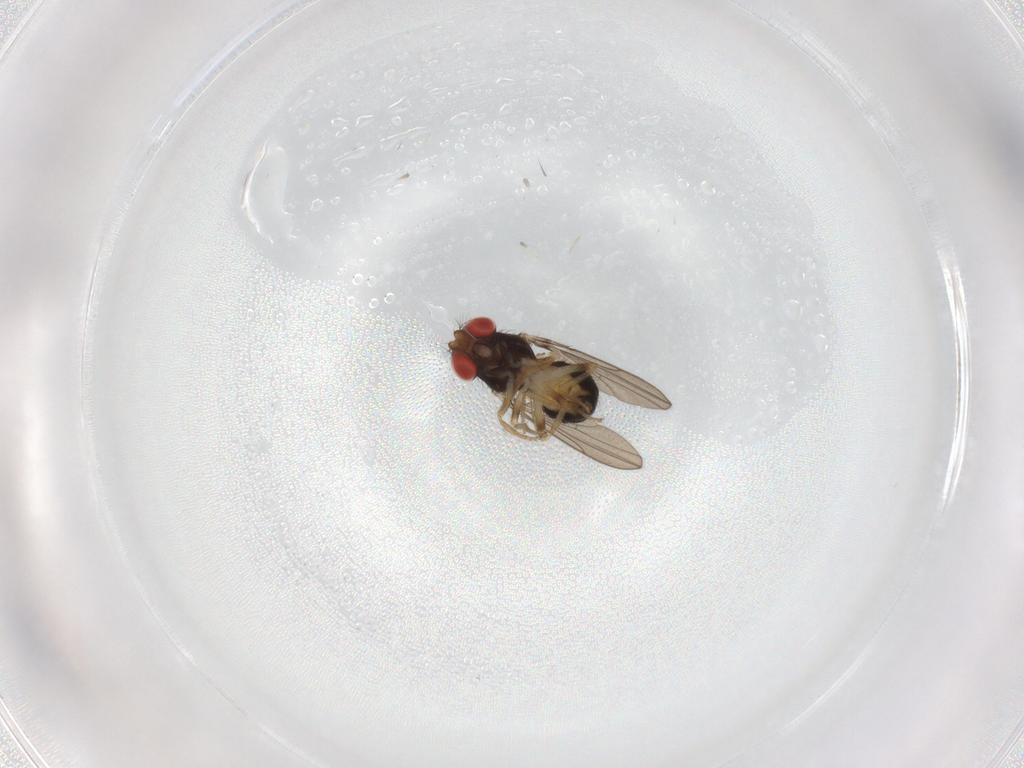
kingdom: Animalia
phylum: Arthropoda
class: Insecta
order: Diptera
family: Drosophilidae
